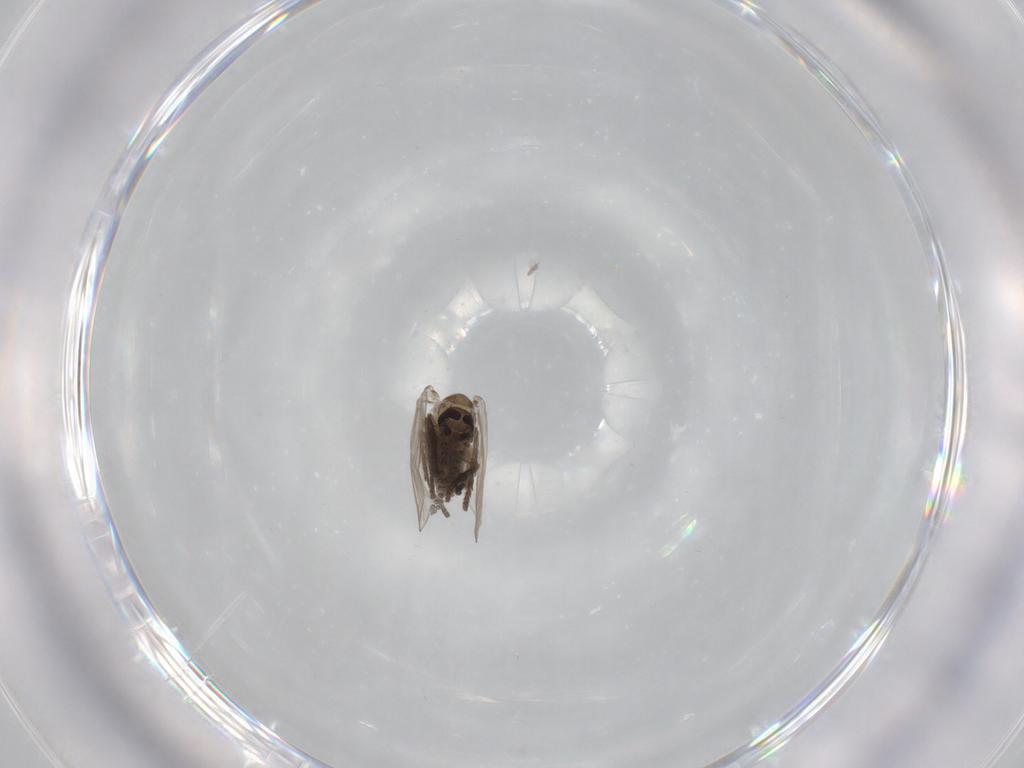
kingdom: Animalia
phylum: Arthropoda
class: Insecta
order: Diptera
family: Psychodidae
